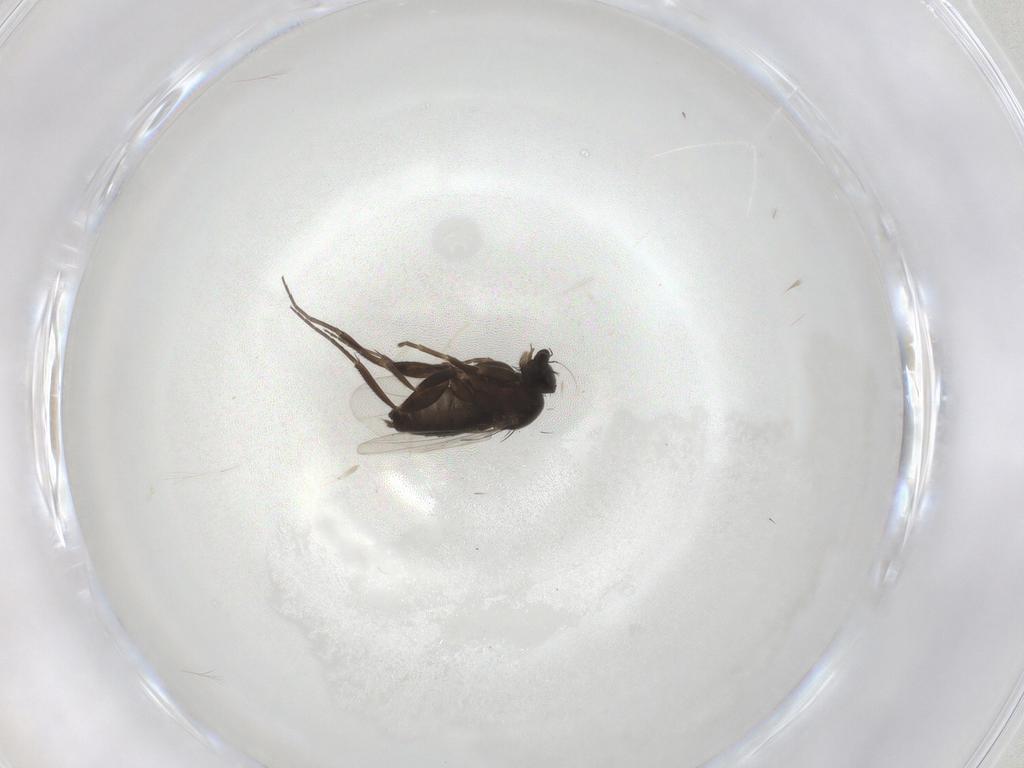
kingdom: Animalia
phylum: Arthropoda
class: Insecta
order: Diptera
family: Phoridae
